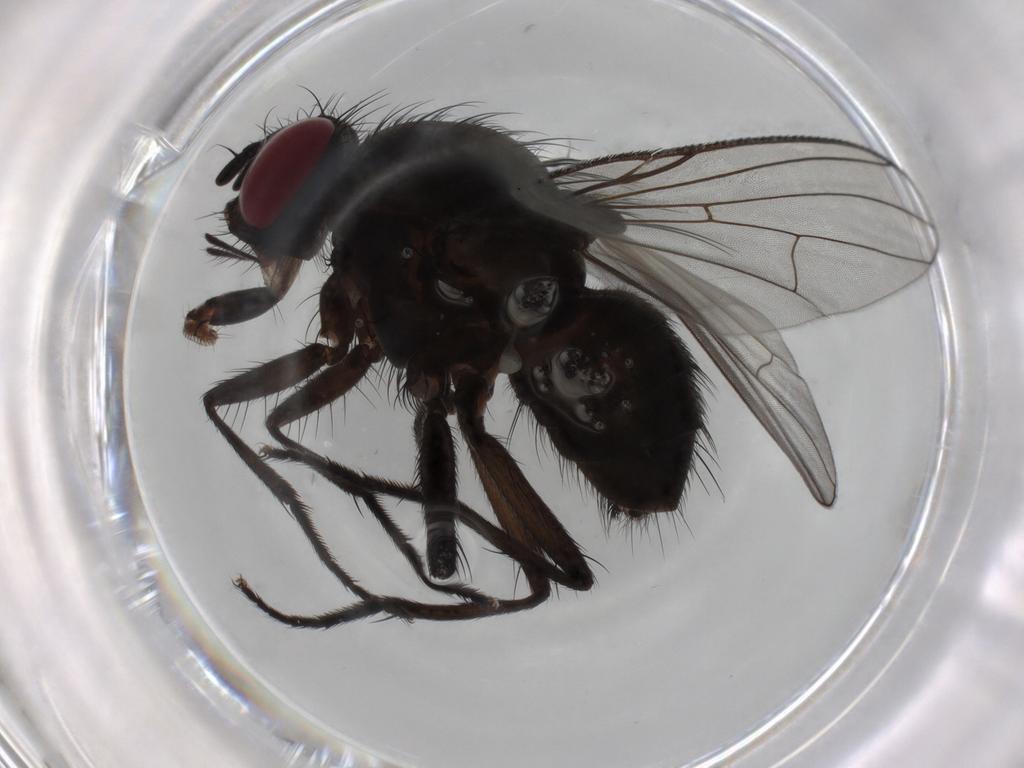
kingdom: Animalia
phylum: Arthropoda
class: Insecta
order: Diptera
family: Muscidae
